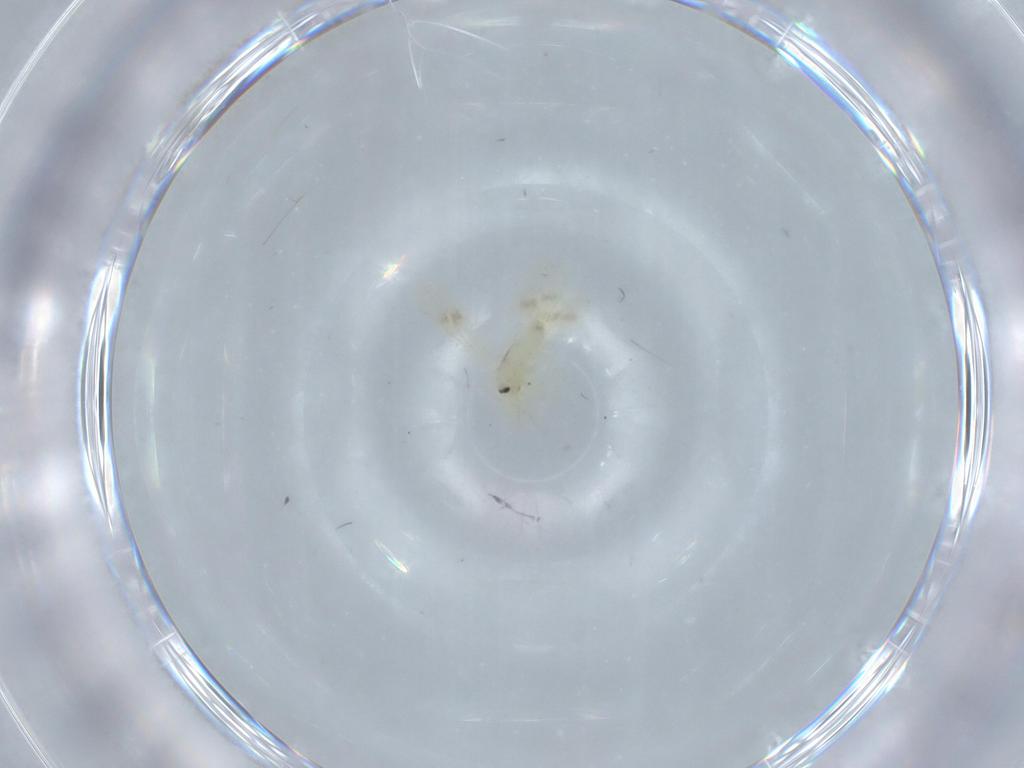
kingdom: Animalia
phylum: Arthropoda
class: Insecta
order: Hemiptera
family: Aleyrodidae
